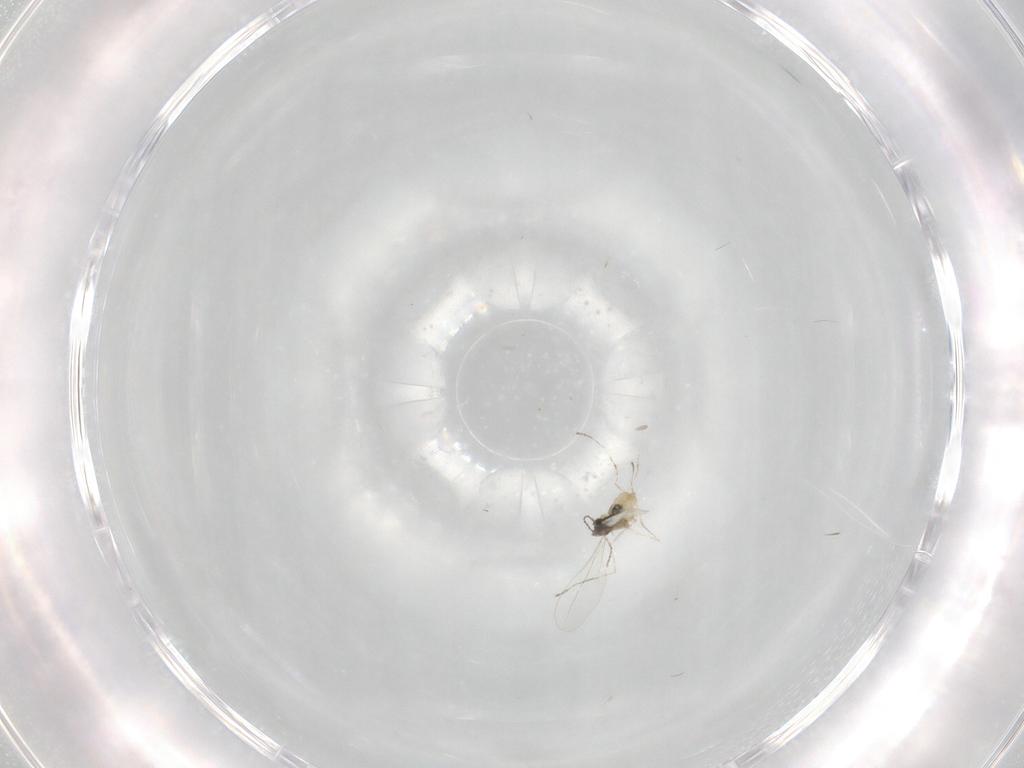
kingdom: Animalia
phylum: Arthropoda
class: Insecta
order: Diptera
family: Cecidomyiidae
